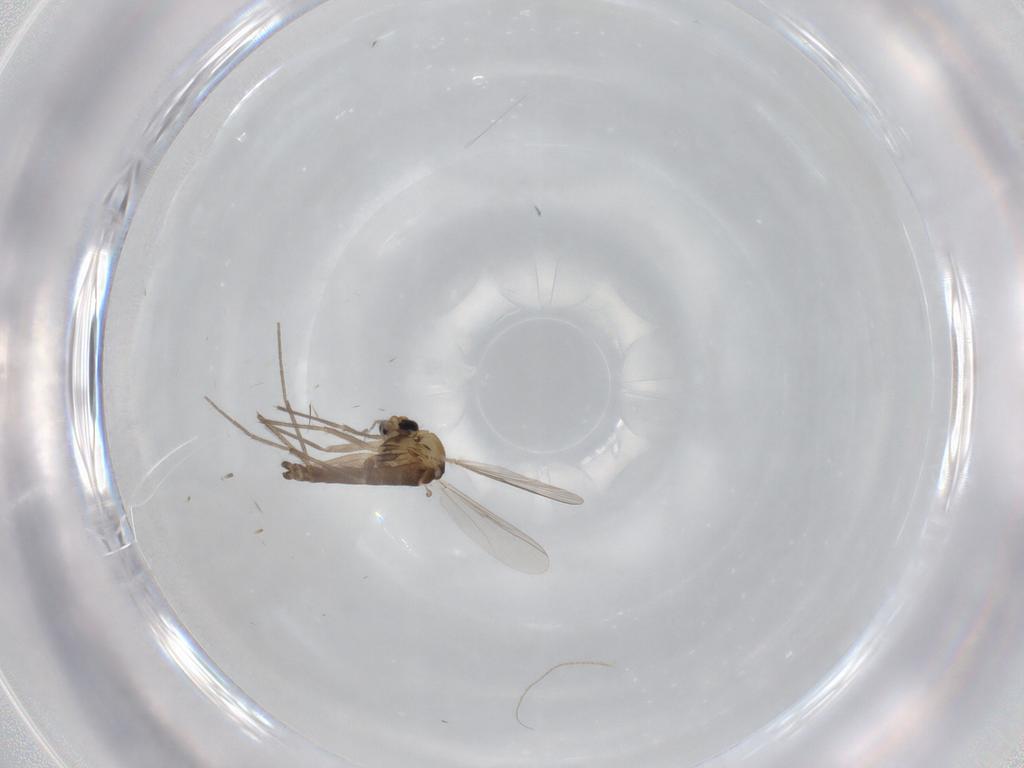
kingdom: Animalia
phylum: Arthropoda
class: Insecta
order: Diptera
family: Chironomidae
